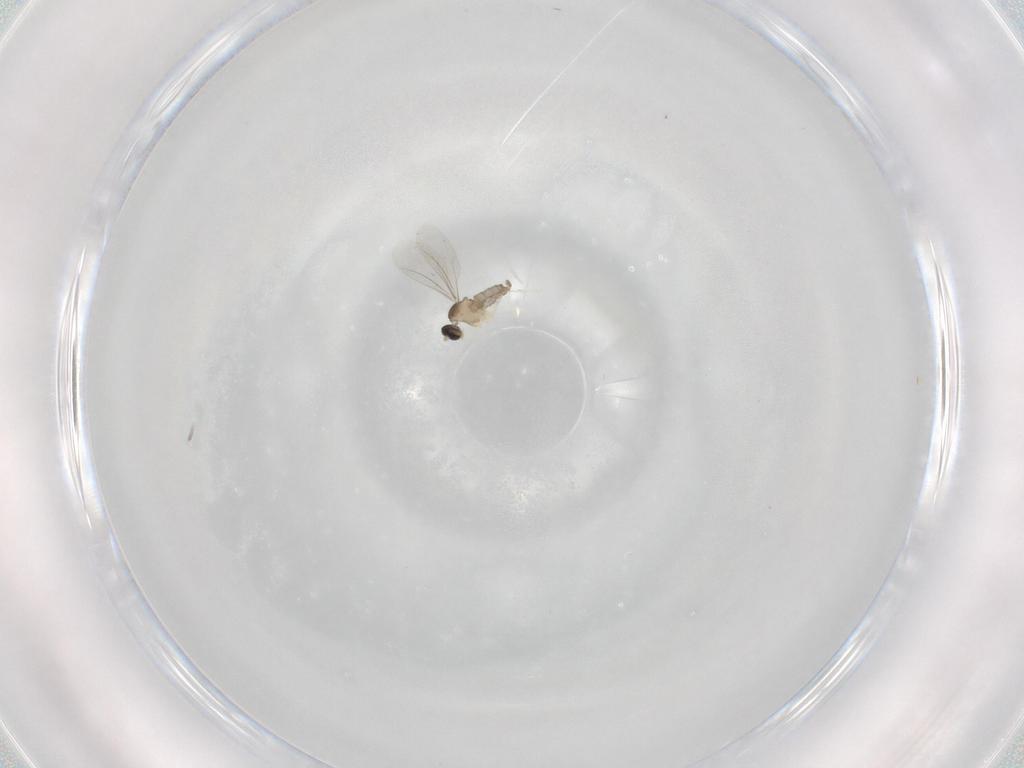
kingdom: Animalia
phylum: Arthropoda
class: Insecta
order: Diptera
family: Cecidomyiidae
